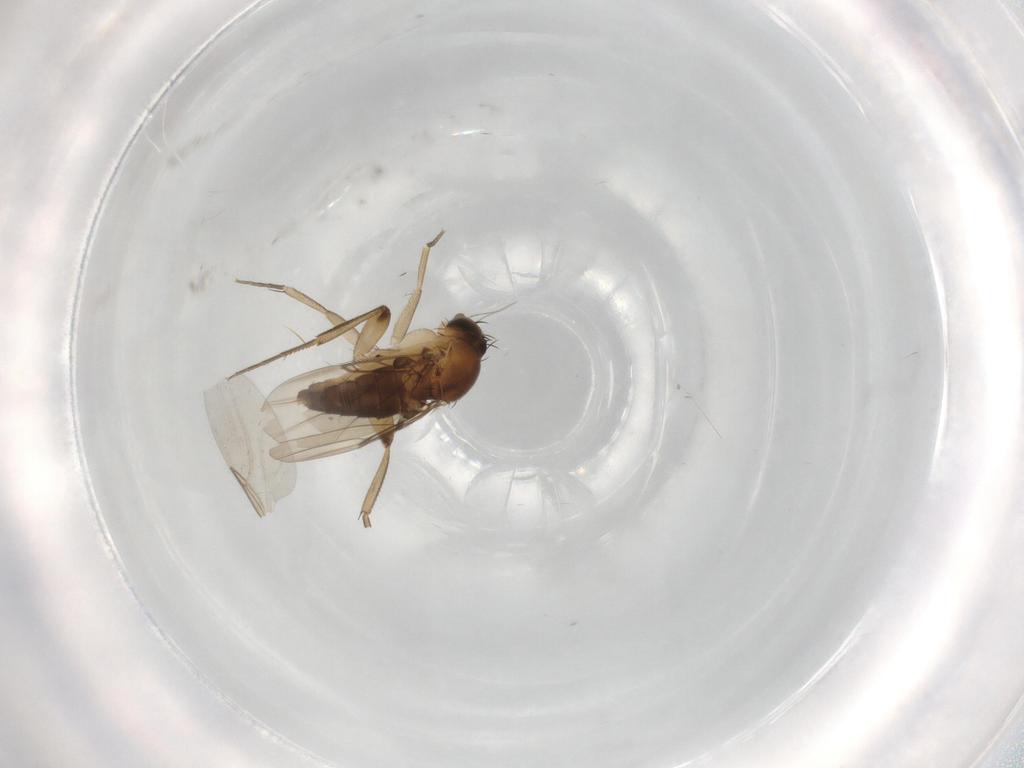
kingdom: Animalia
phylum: Arthropoda
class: Insecta
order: Diptera
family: Phoridae
